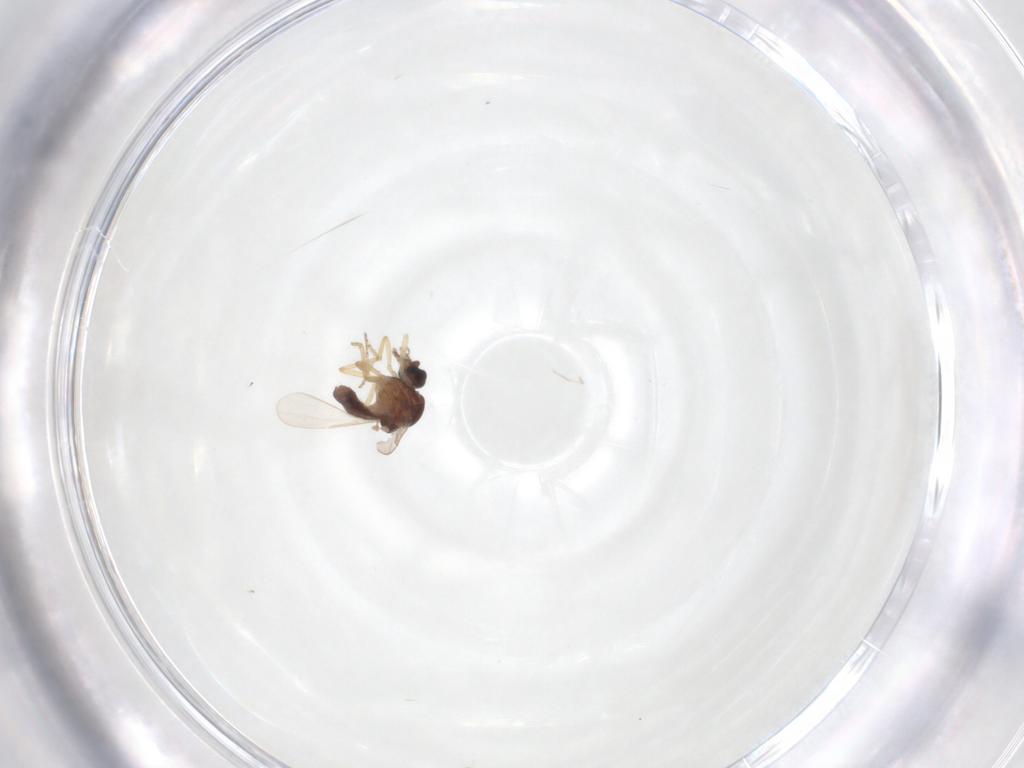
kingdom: Animalia
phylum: Arthropoda
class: Insecta
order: Diptera
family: Ceratopogonidae
